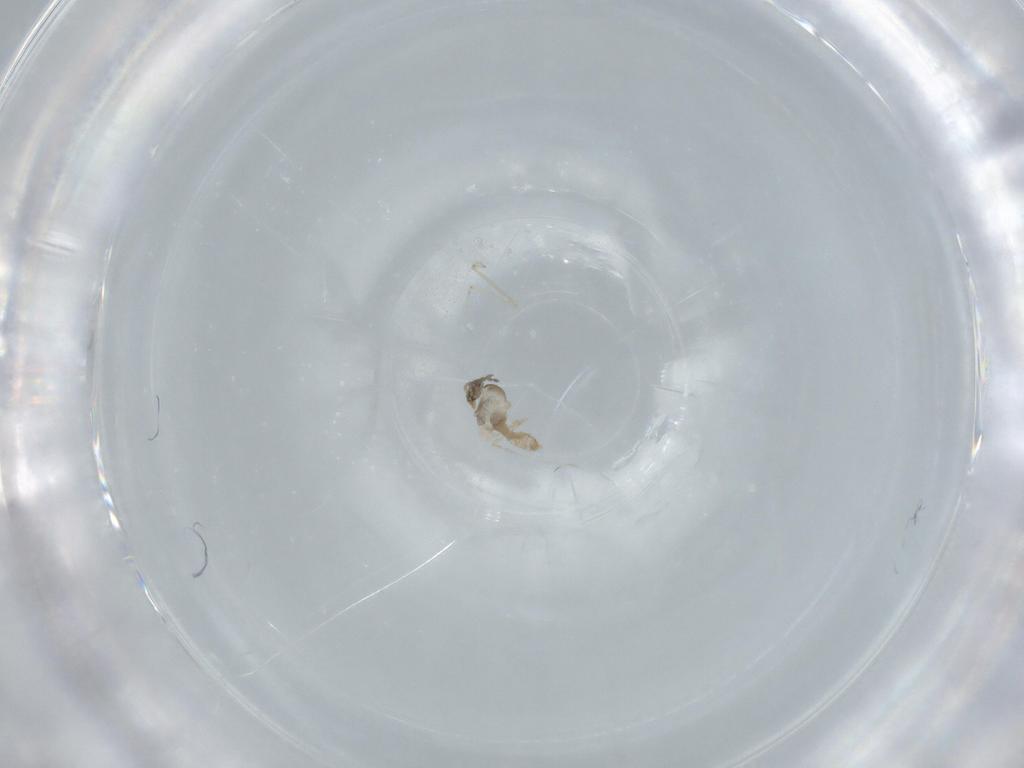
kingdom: Animalia
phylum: Arthropoda
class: Insecta
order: Diptera
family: Cecidomyiidae
